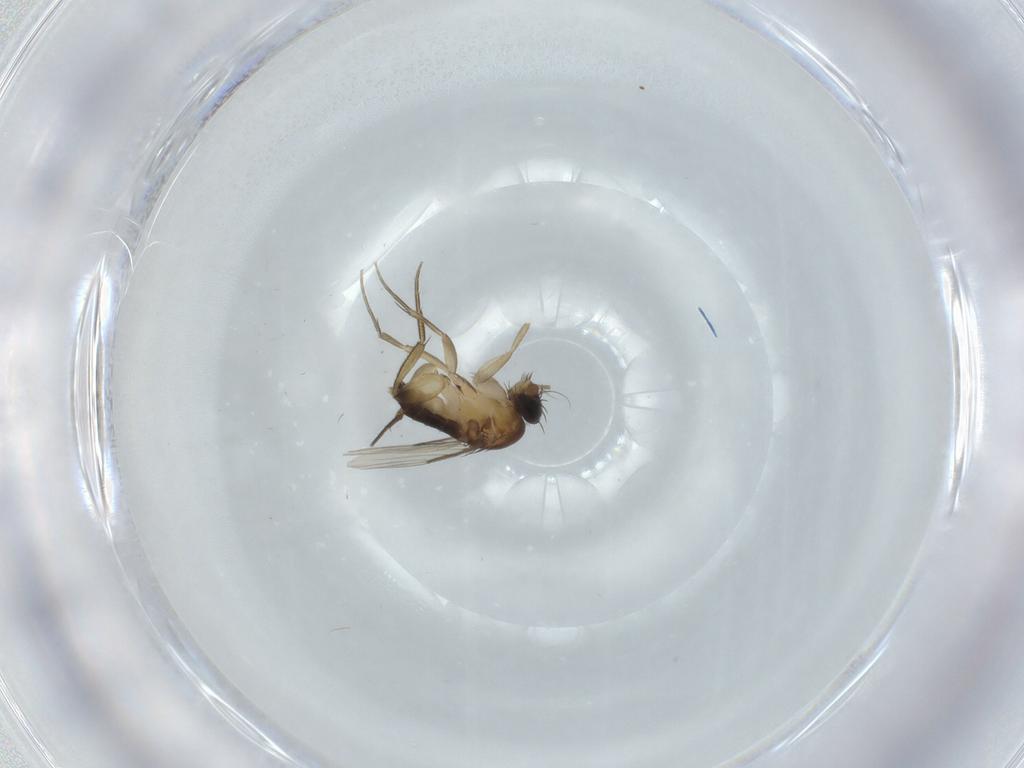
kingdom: Animalia
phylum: Arthropoda
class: Insecta
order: Diptera
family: Phoridae
